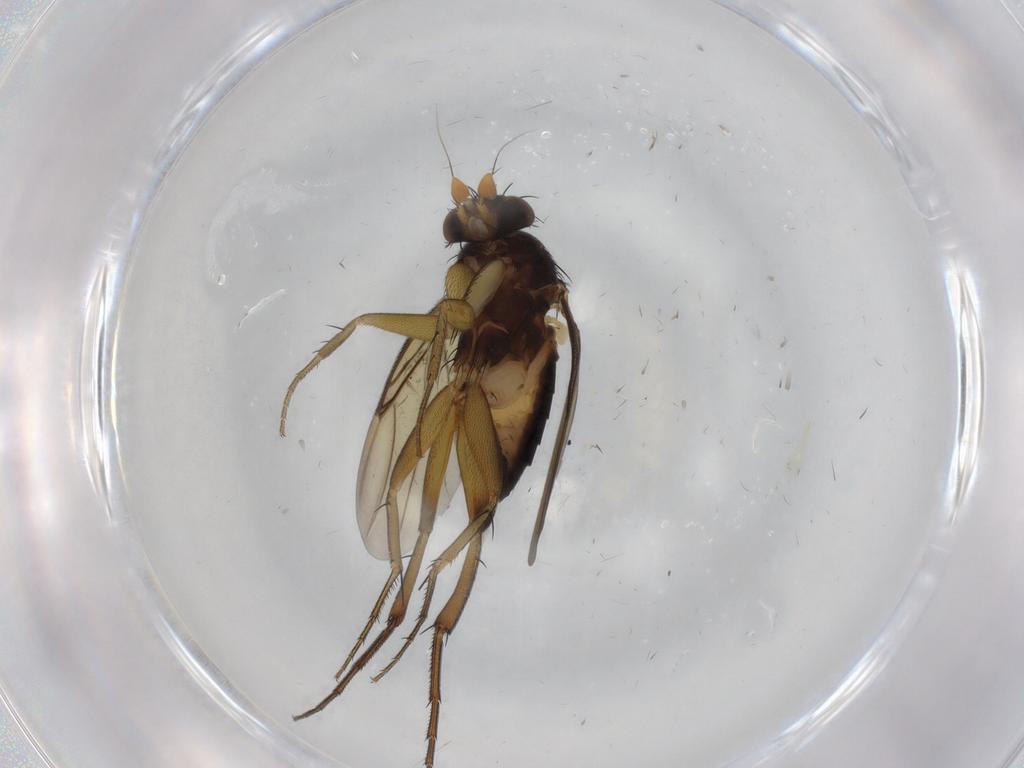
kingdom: Animalia
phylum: Arthropoda
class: Insecta
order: Diptera
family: Phoridae
